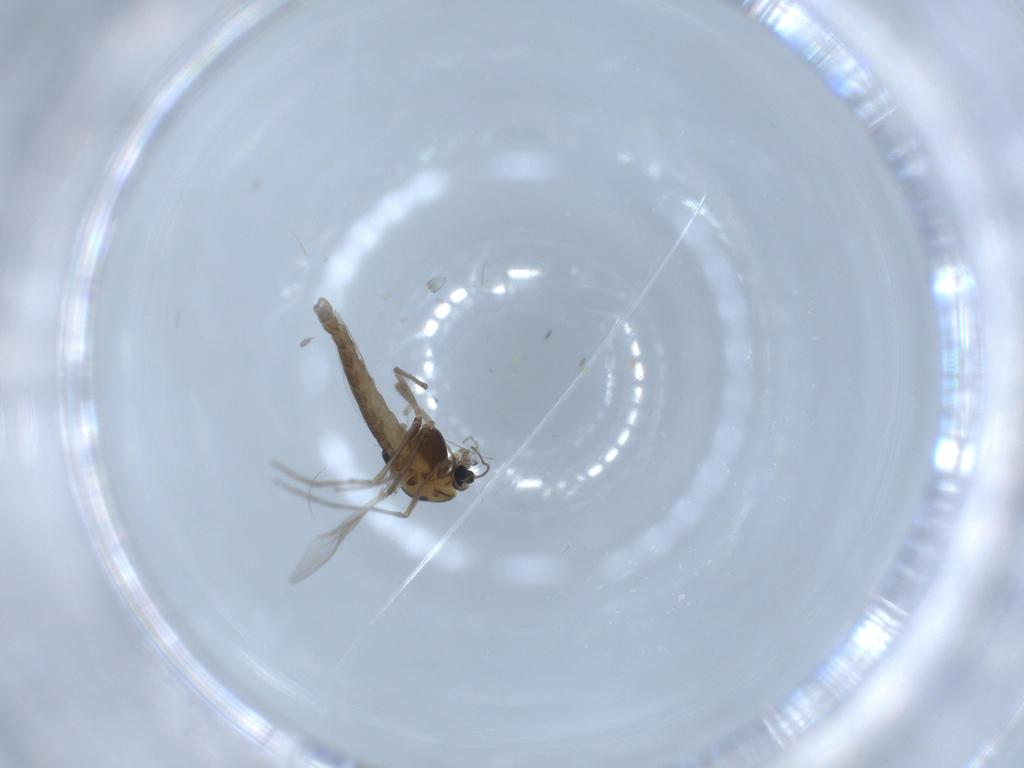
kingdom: Animalia
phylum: Arthropoda
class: Insecta
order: Diptera
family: Chironomidae
